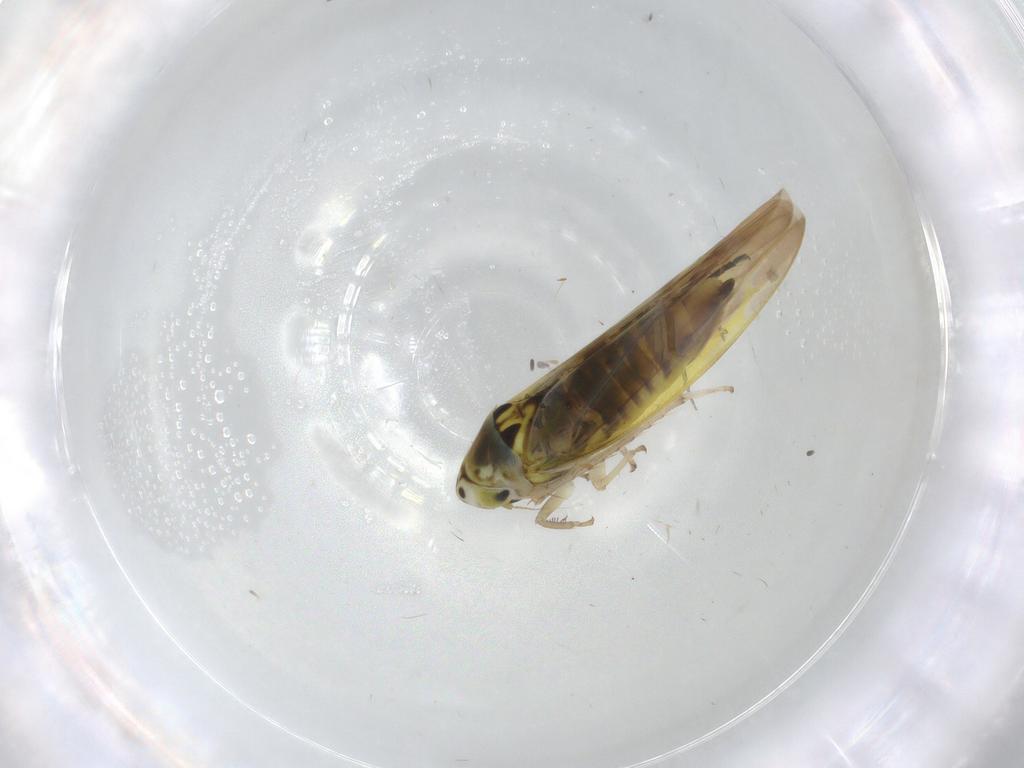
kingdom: Animalia
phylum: Arthropoda
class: Insecta
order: Hemiptera
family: Cicadellidae
